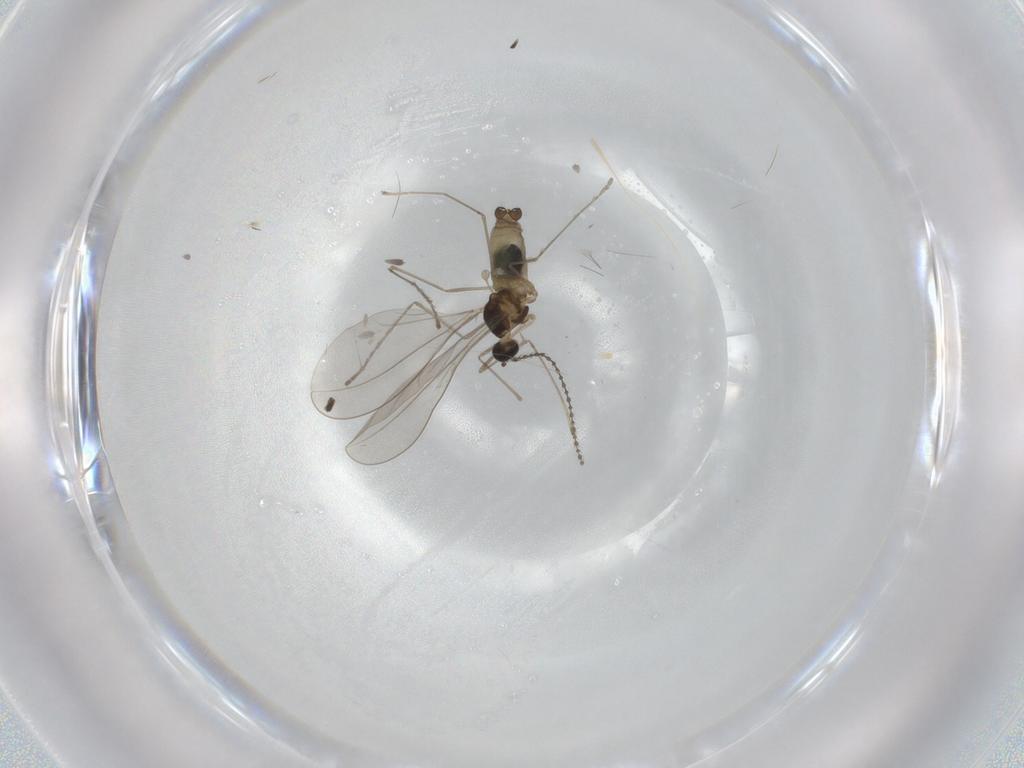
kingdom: Animalia
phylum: Arthropoda
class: Insecta
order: Diptera
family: Cecidomyiidae
